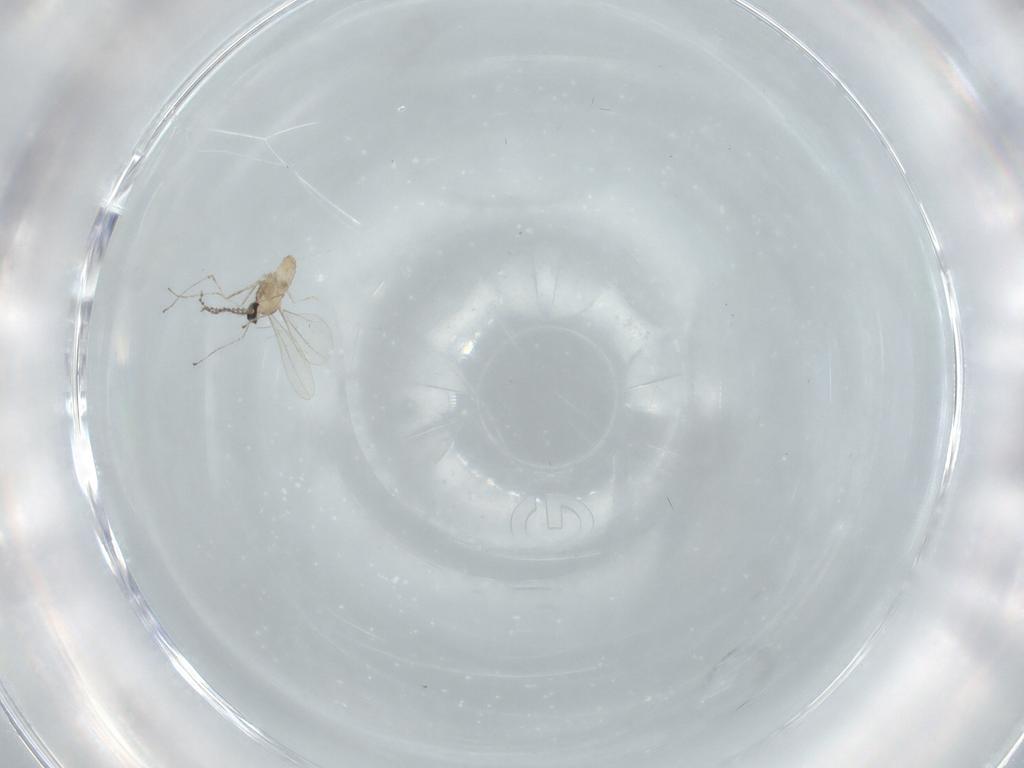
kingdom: Animalia
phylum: Arthropoda
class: Insecta
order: Diptera
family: Cecidomyiidae
